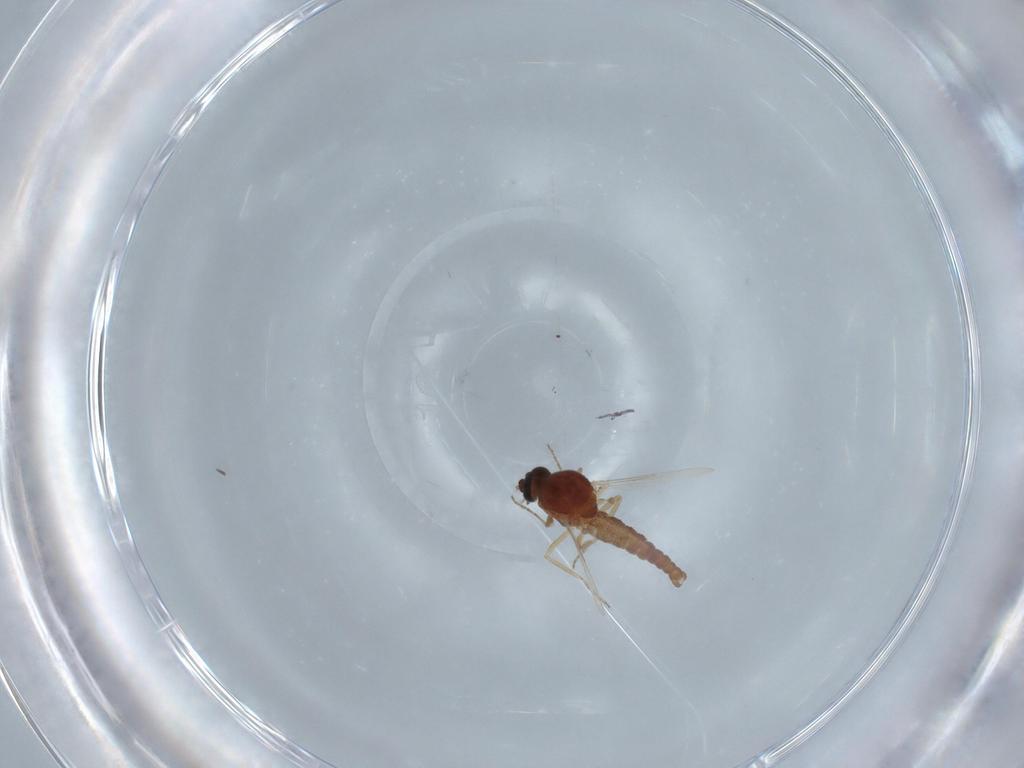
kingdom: Animalia
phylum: Arthropoda
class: Insecta
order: Diptera
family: Ceratopogonidae
